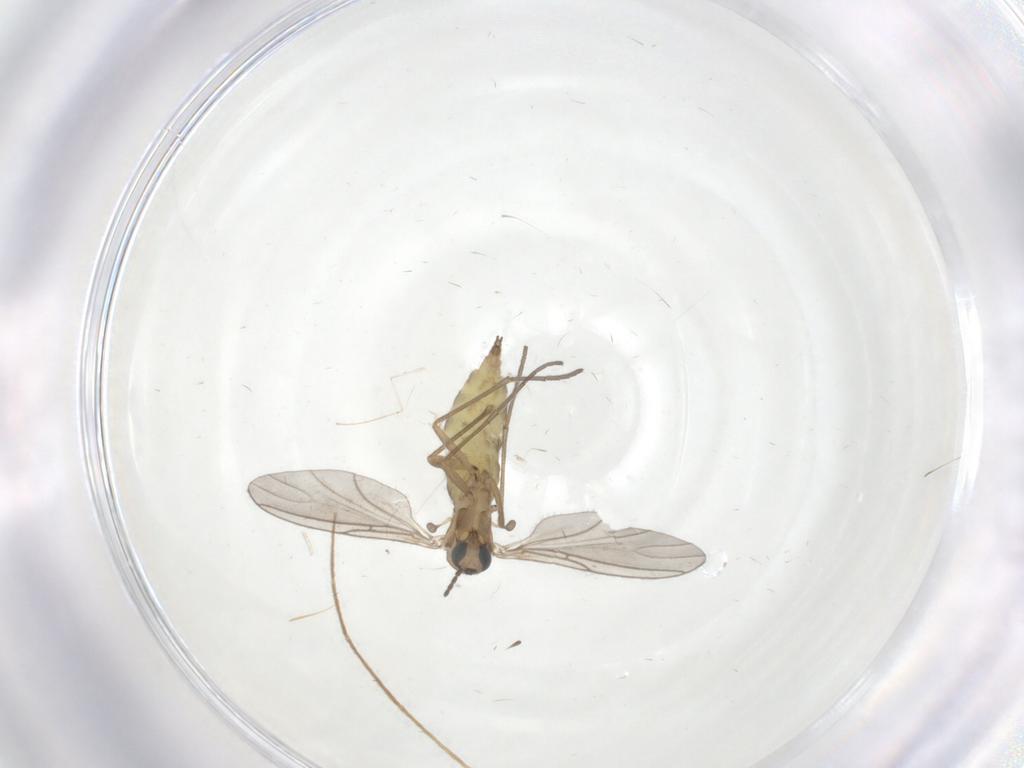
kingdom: Animalia
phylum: Arthropoda
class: Insecta
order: Diptera
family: Sciaridae
